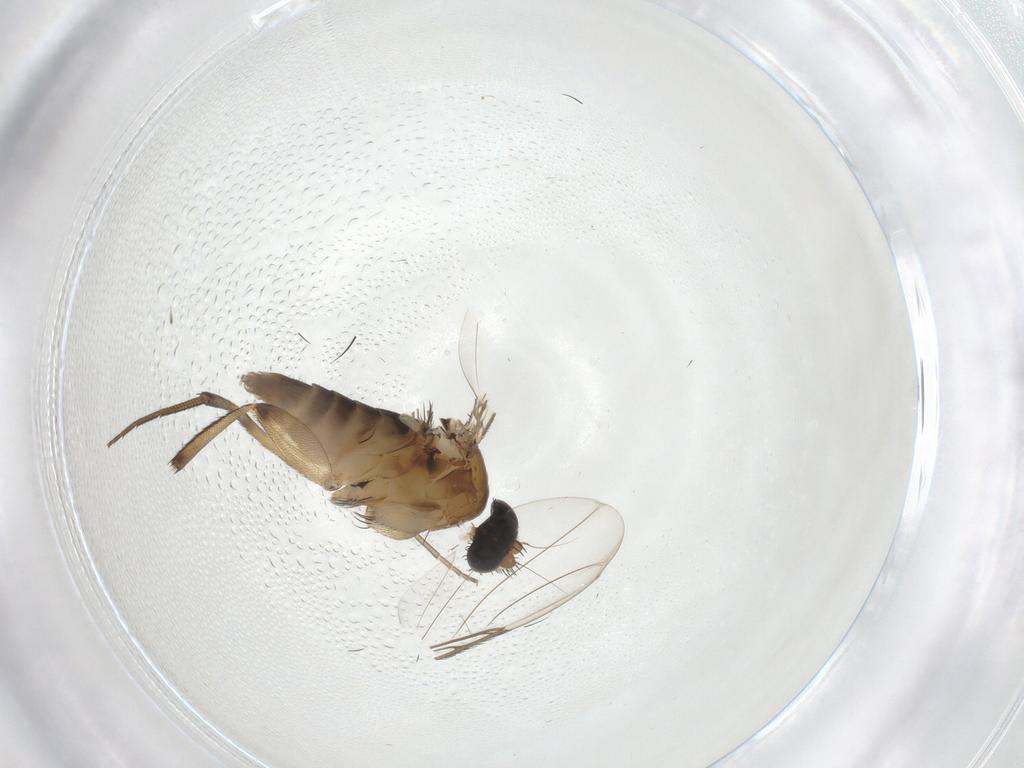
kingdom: Animalia
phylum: Arthropoda
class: Insecta
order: Diptera
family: Phoridae
